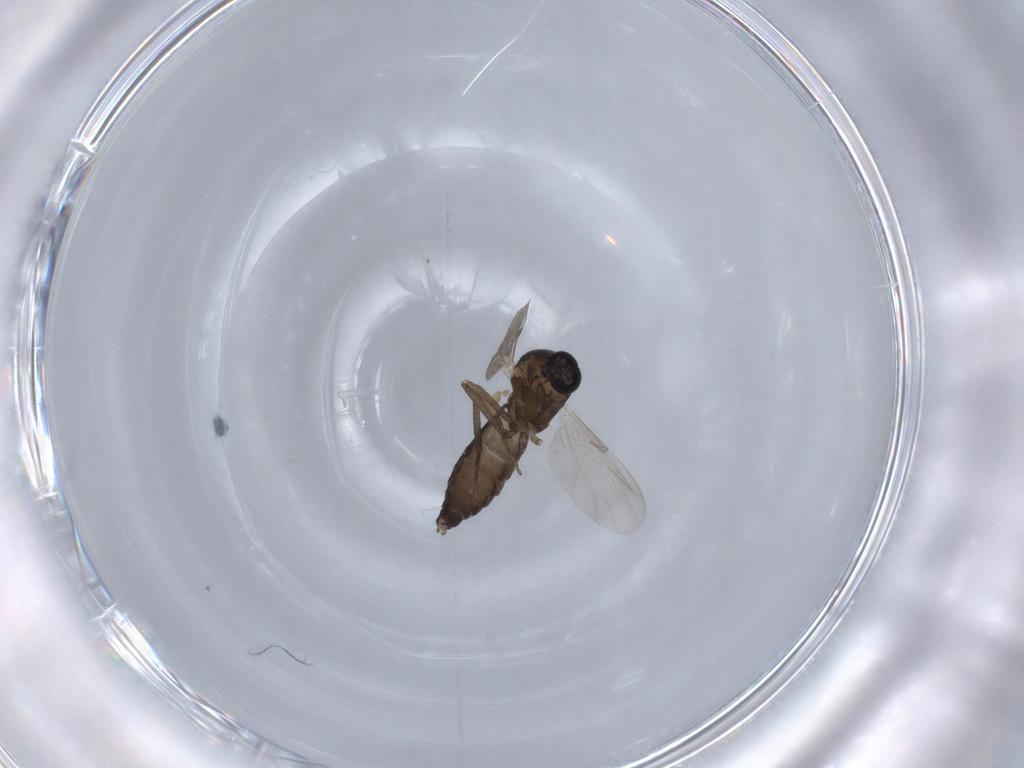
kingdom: Animalia
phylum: Arthropoda
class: Insecta
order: Diptera
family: Ceratopogonidae
